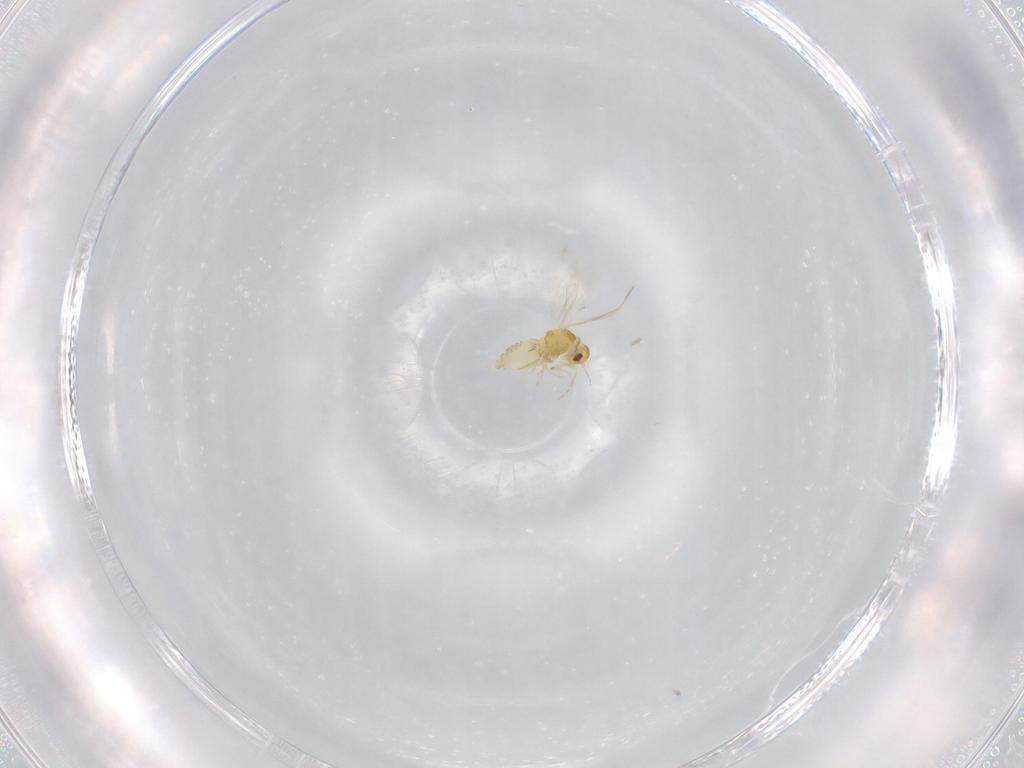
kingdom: Animalia
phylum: Arthropoda
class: Insecta
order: Hemiptera
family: Aleyrodidae
